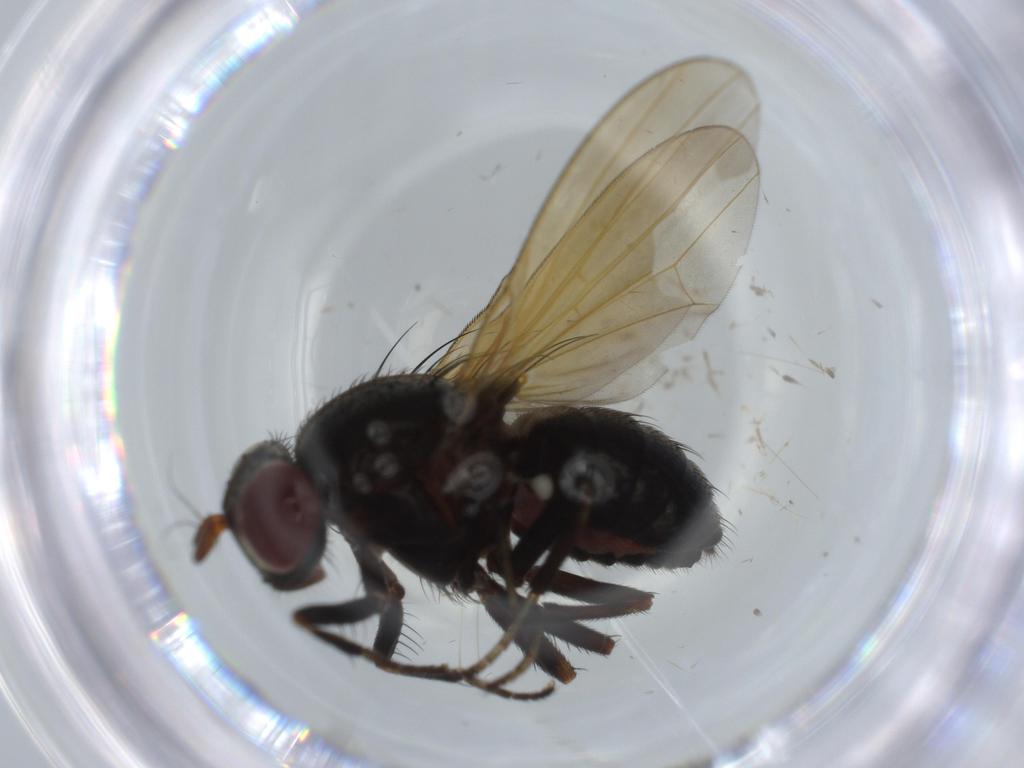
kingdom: Animalia
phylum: Arthropoda
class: Insecta
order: Diptera
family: Lauxaniidae
